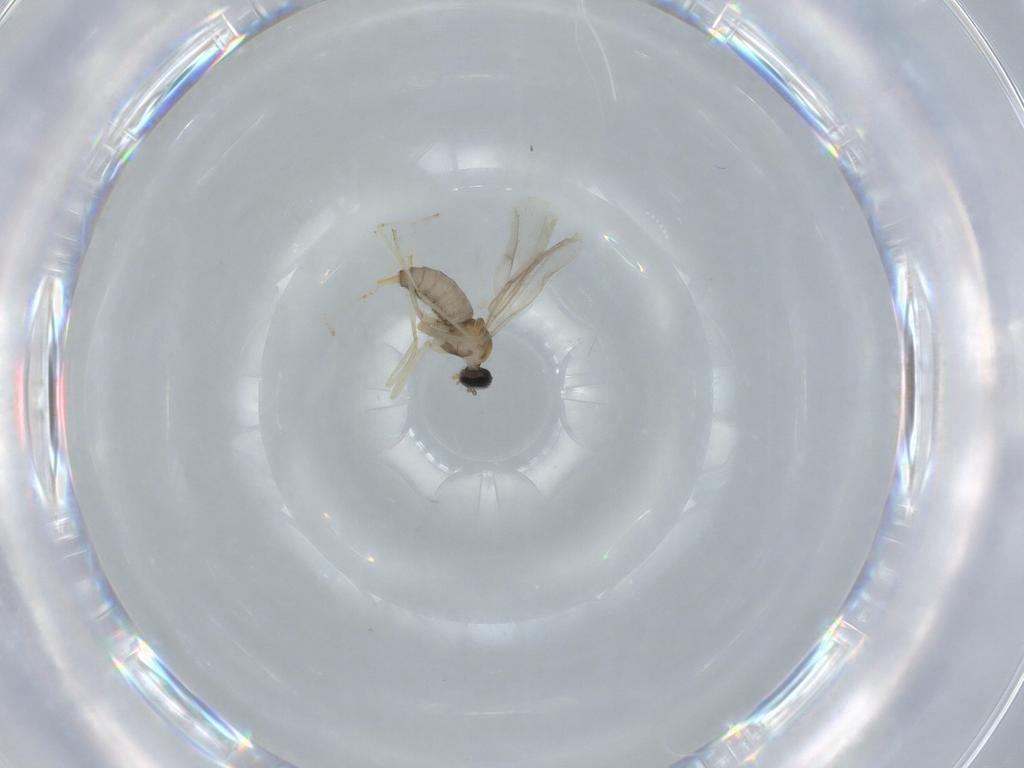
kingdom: Animalia
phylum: Arthropoda
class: Insecta
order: Diptera
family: Cecidomyiidae
